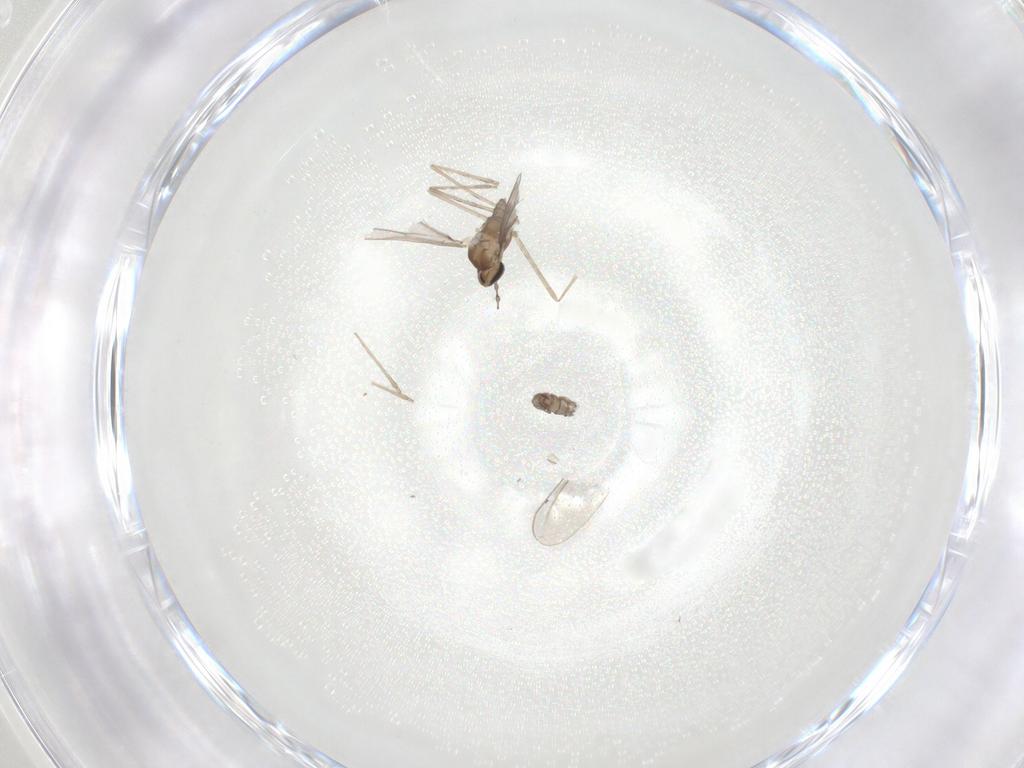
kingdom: Animalia
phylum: Arthropoda
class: Insecta
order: Diptera
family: Cecidomyiidae
